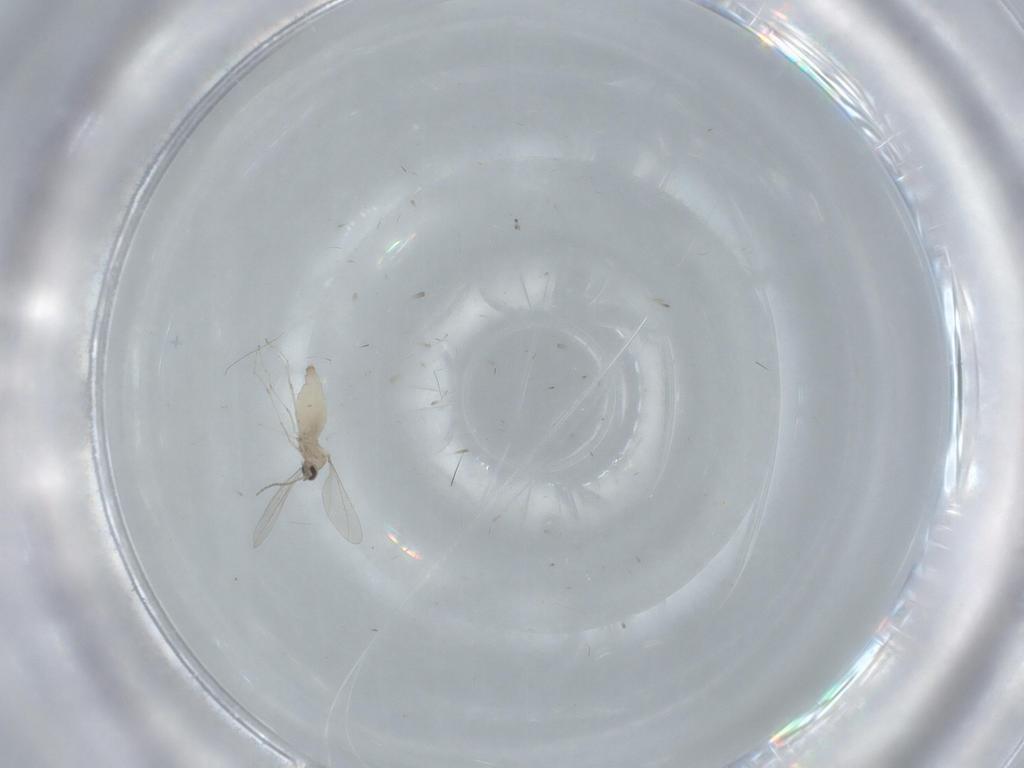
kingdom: Animalia
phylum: Arthropoda
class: Insecta
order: Diptera
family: Tabanidae
